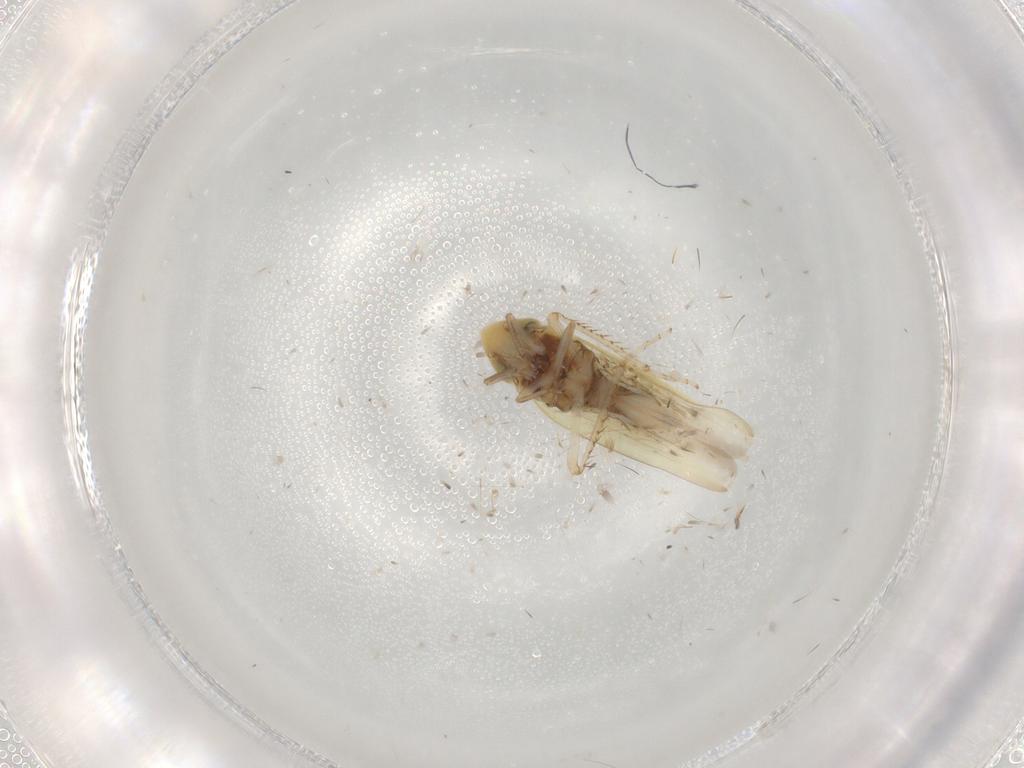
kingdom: Animalia
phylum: Arthropoda
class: Insecta
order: Hemiptera
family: Cicadellidae
